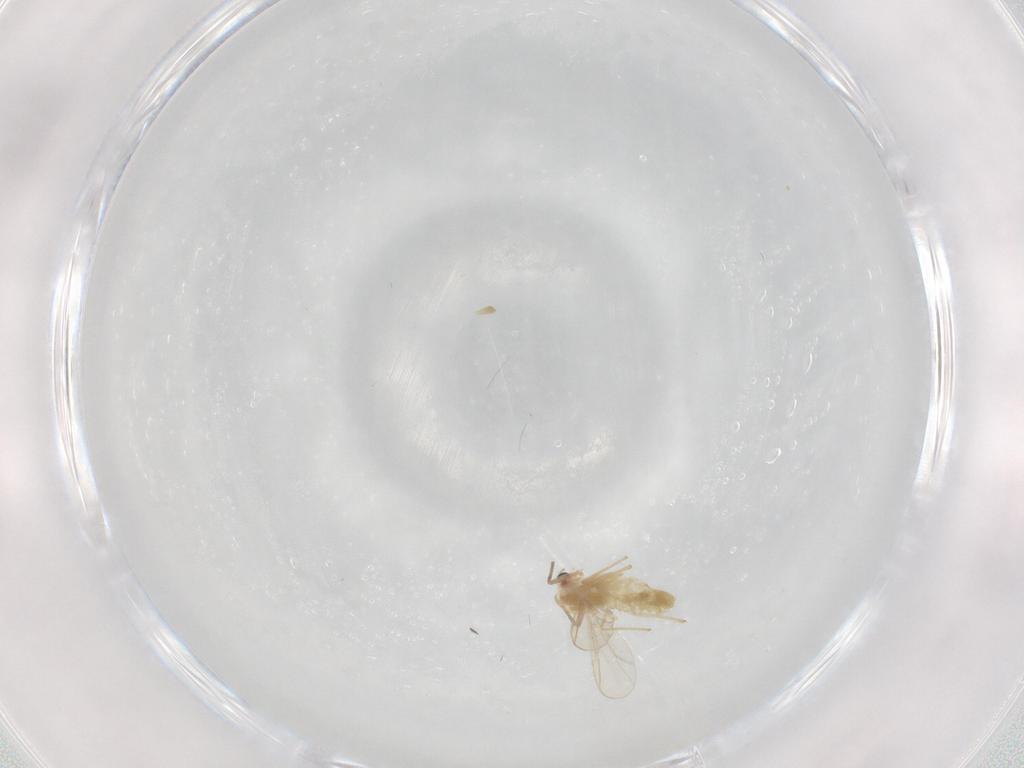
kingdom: Animalia
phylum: Arthropoda
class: Insecta
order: Diptera
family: Chironomidae
